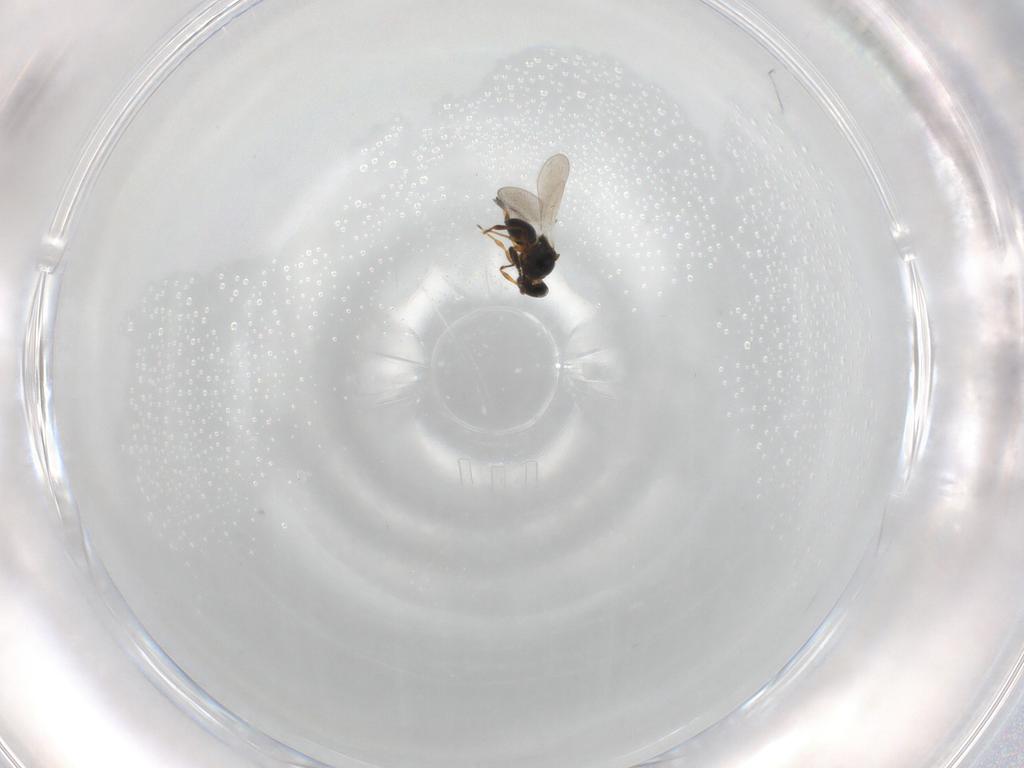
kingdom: Animalia
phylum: Arthropoda
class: Insecta
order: Hymenoptera
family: Platygastridae
